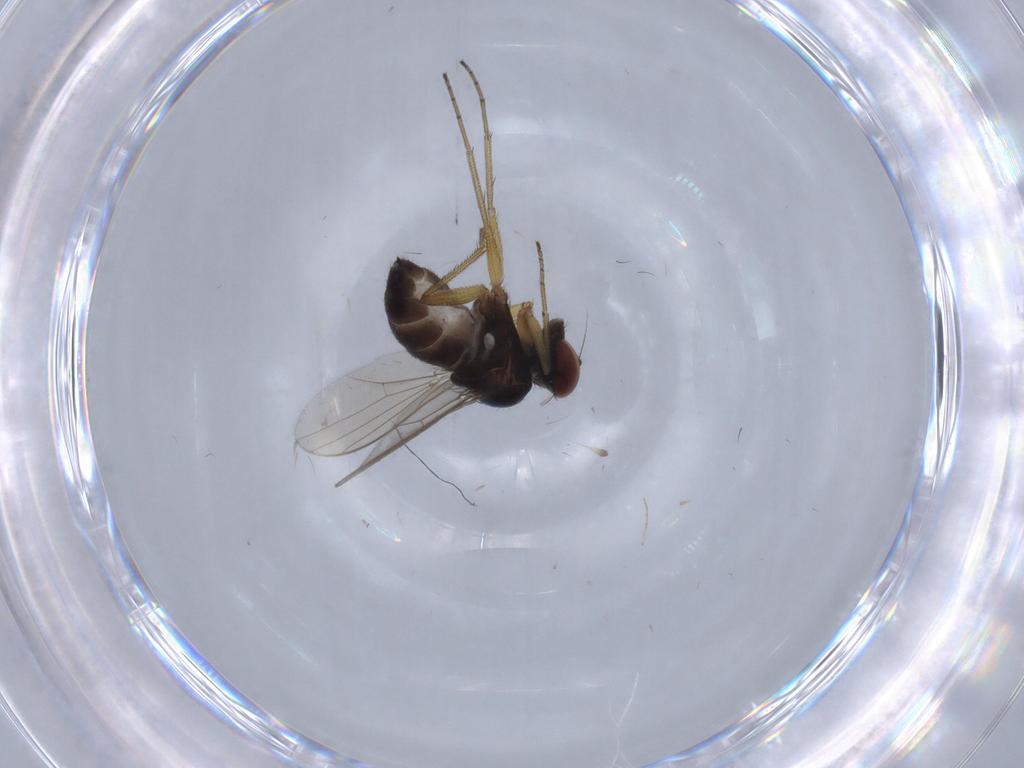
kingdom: Animalia
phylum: Arthropoda
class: Insecta
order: Diptera
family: Dolichopodidae
